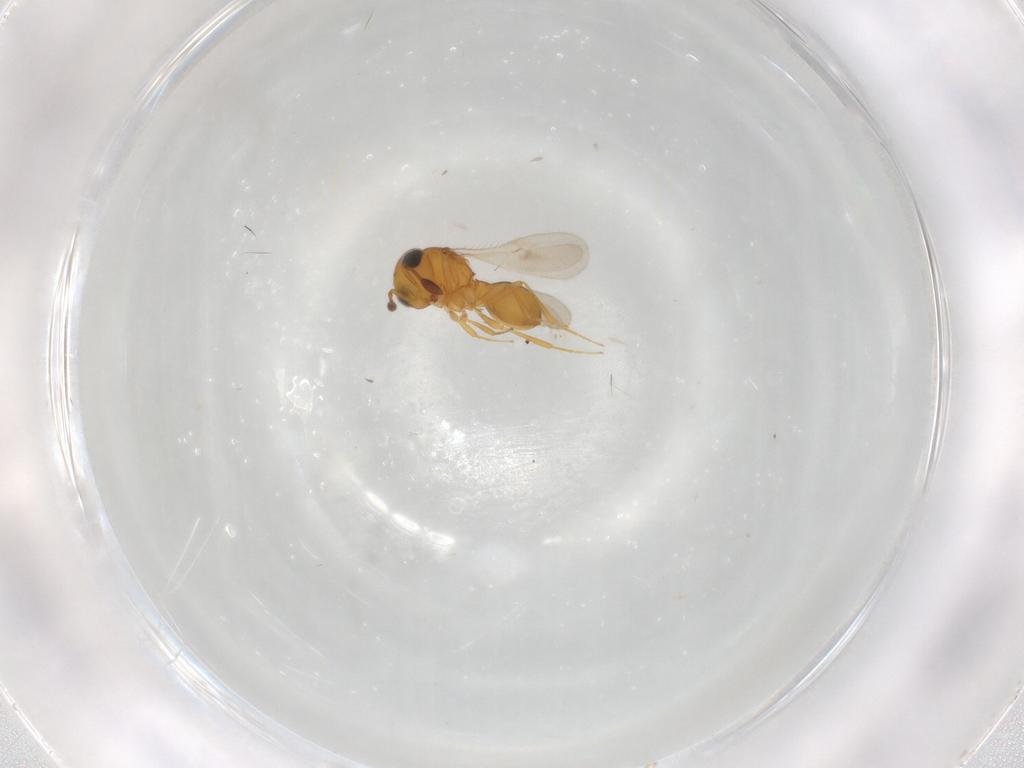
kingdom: Animalia
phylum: Arthropoda
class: Insecta
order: Hymenoptera
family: Scelionidae
